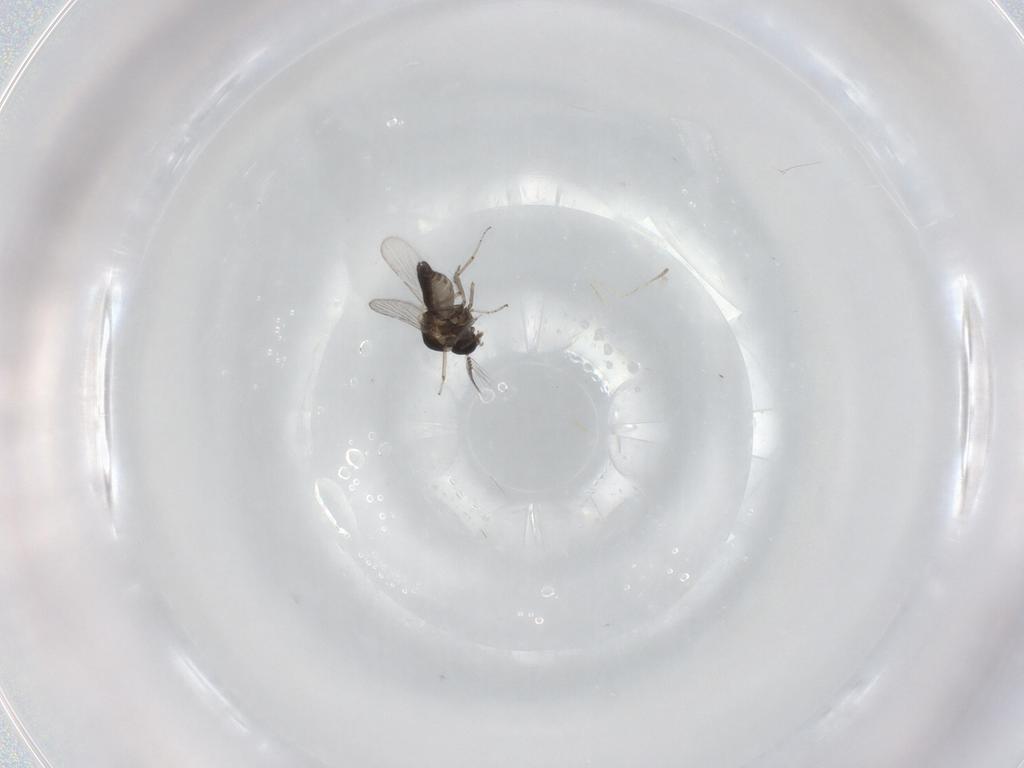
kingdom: Animalia
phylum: Arthropoda
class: Insecta
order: Diptera
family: Ceratopogonidae
